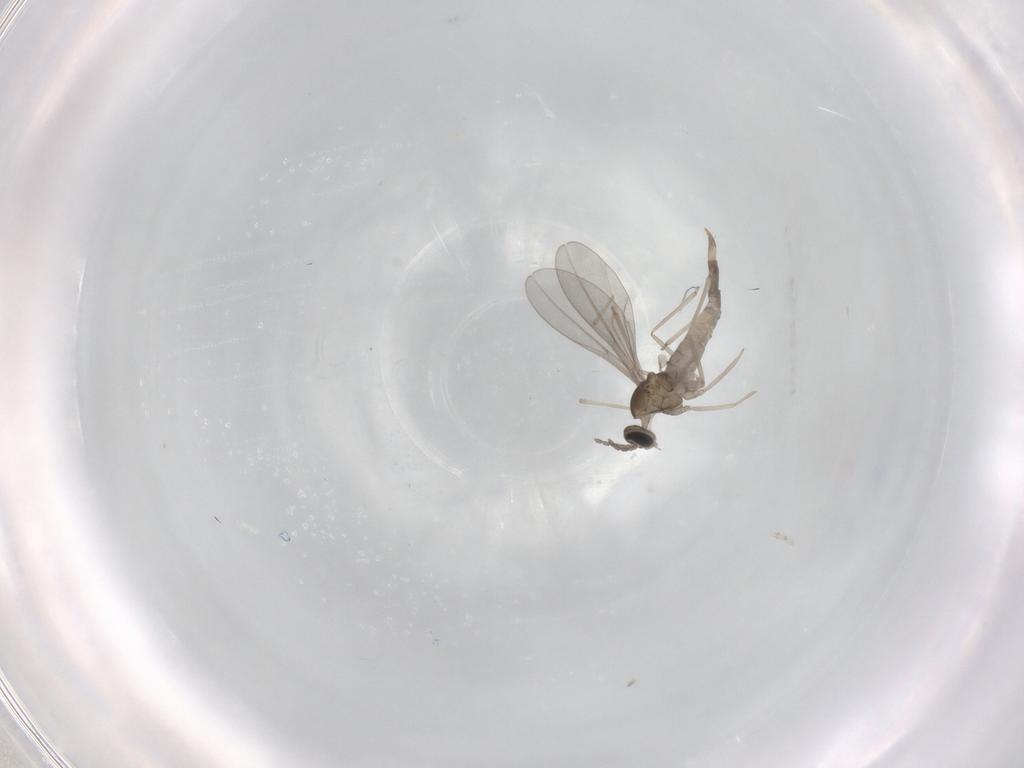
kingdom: Animalia
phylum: Arthropoda
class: Insecta
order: Diptera
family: Cecidomyiidae
